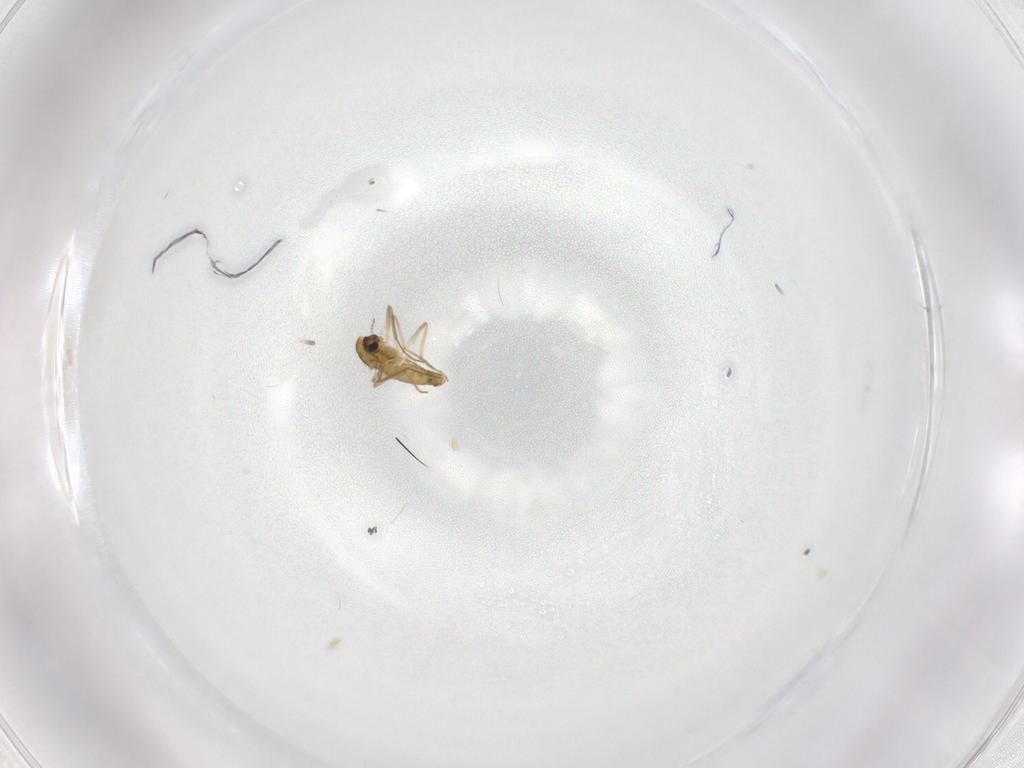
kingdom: Animalia
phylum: Arthropoda
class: Insecta
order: Diptera
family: Chironomidae
